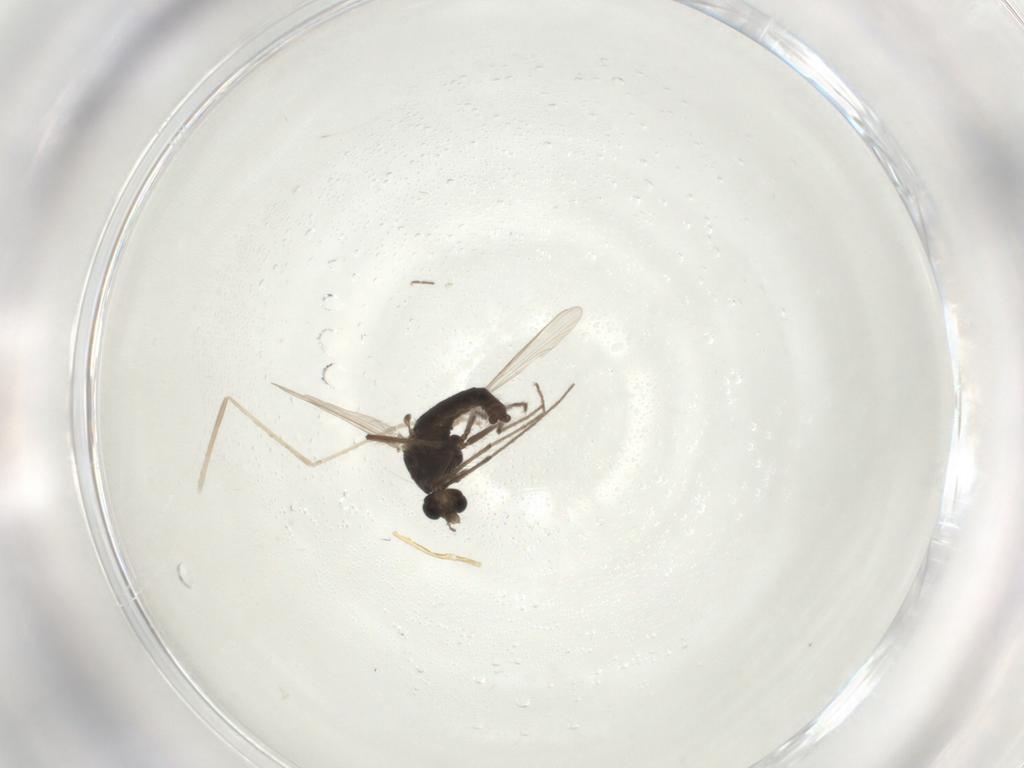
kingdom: Animalia
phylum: Arthropoda
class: Insecta
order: Diptera
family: Chironomidae
